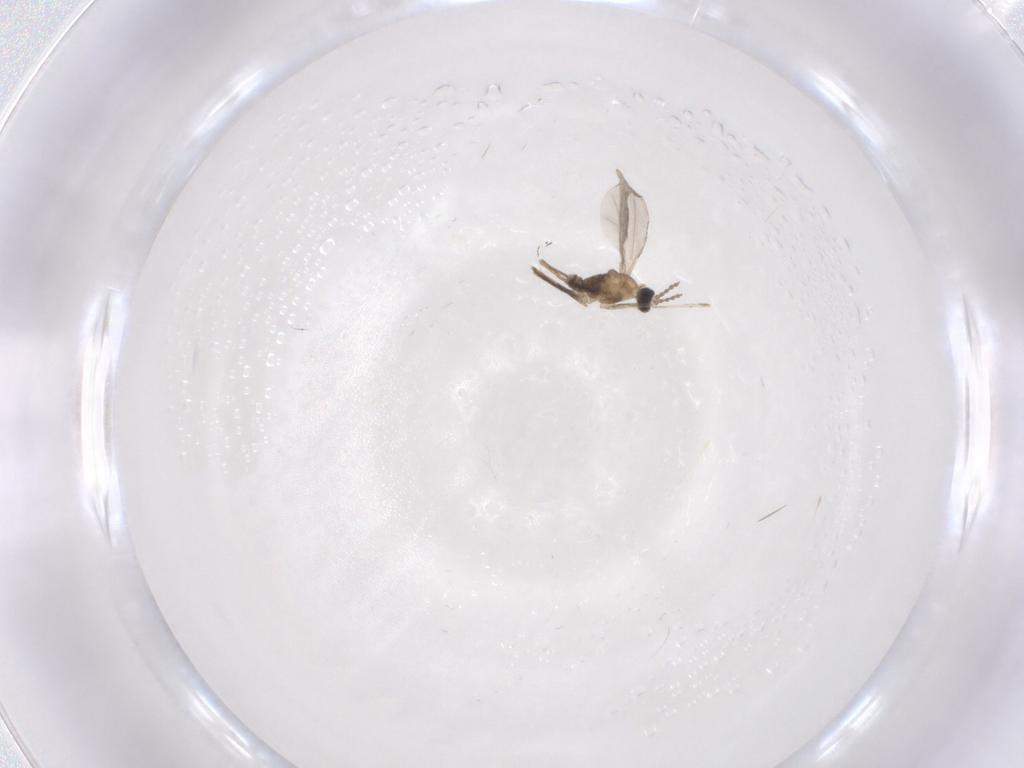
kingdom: Animalia
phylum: Arthropoda
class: Insecta
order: Diptera
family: Cecidomyiidae
